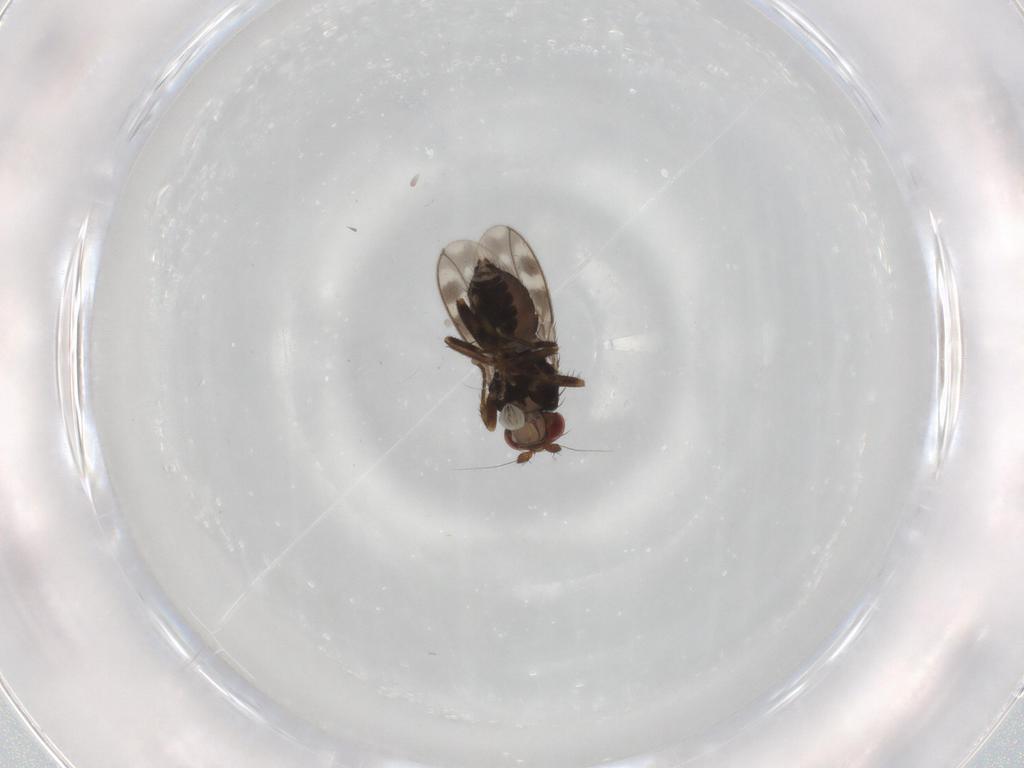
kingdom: Animalia
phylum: Arthropoda
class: Insecta
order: Diptera
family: Sphaeroceridae
